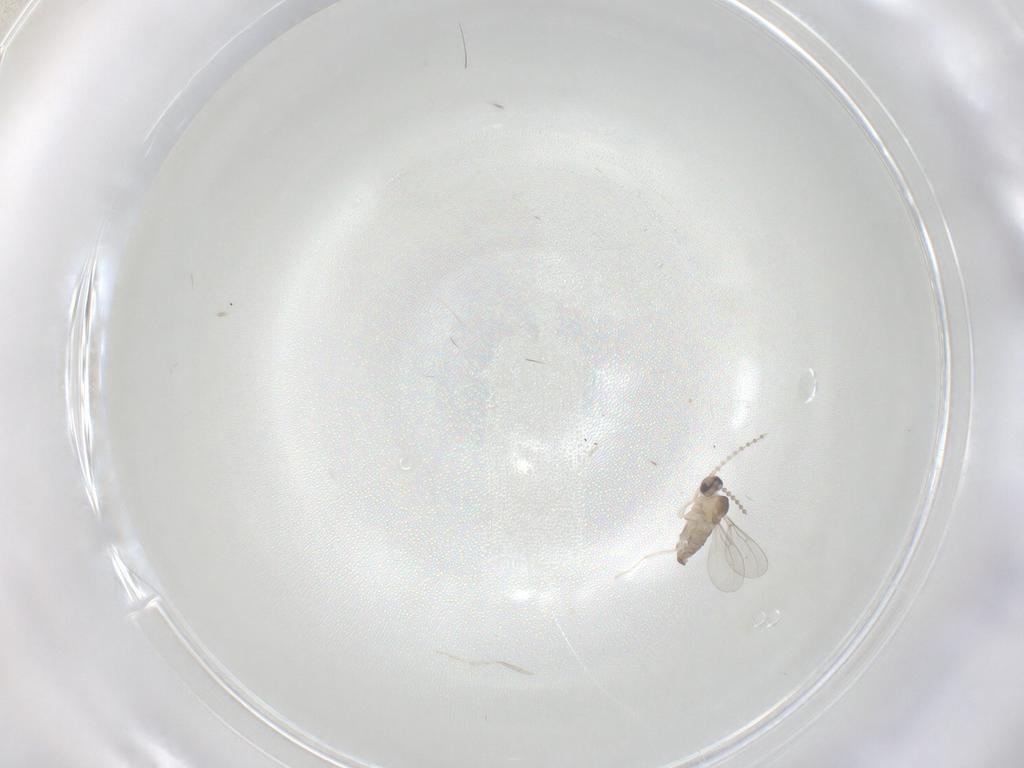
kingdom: Animalia
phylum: Arthropoda
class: Insecta
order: Diptera
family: Cecidomyiidae
